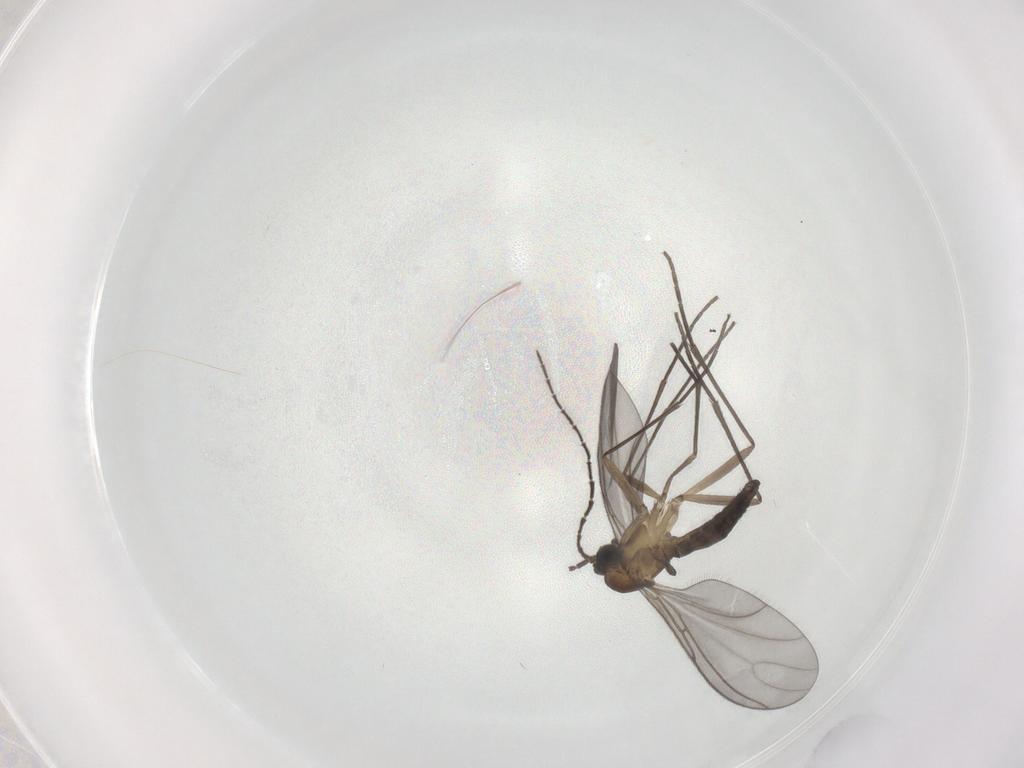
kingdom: Animalia
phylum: Arthropoda
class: Insecta
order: Diptera
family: Sciaridae
